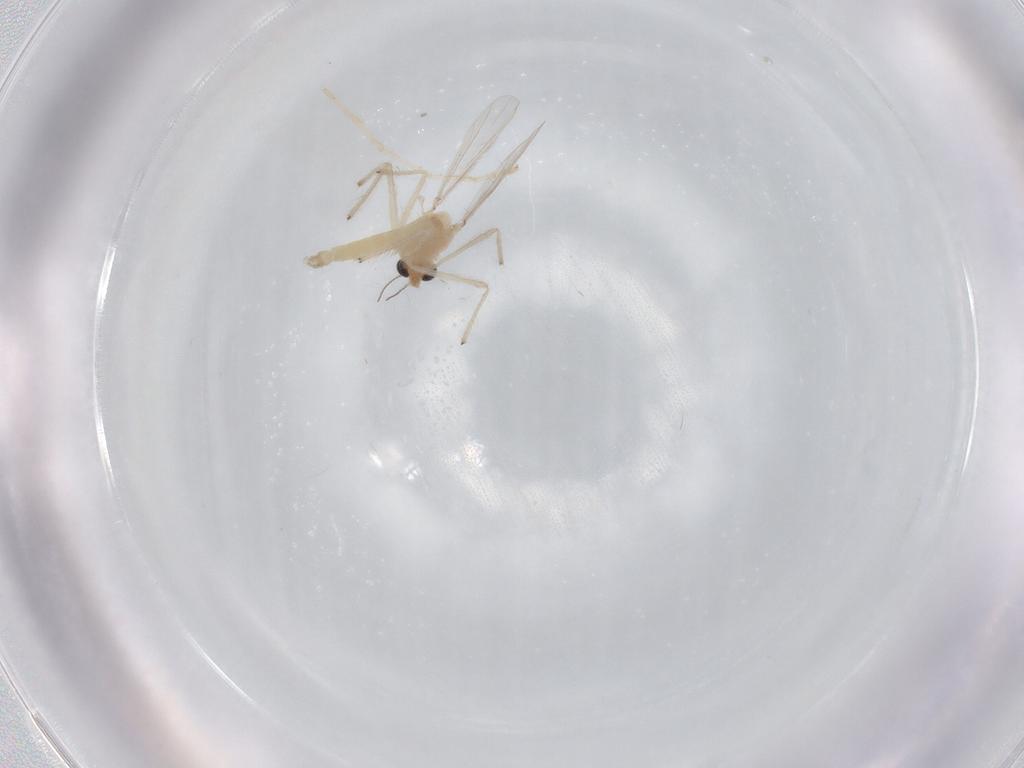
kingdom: Animalia
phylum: Arthropoda
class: Insecta
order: Diptera
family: Chironomidae
